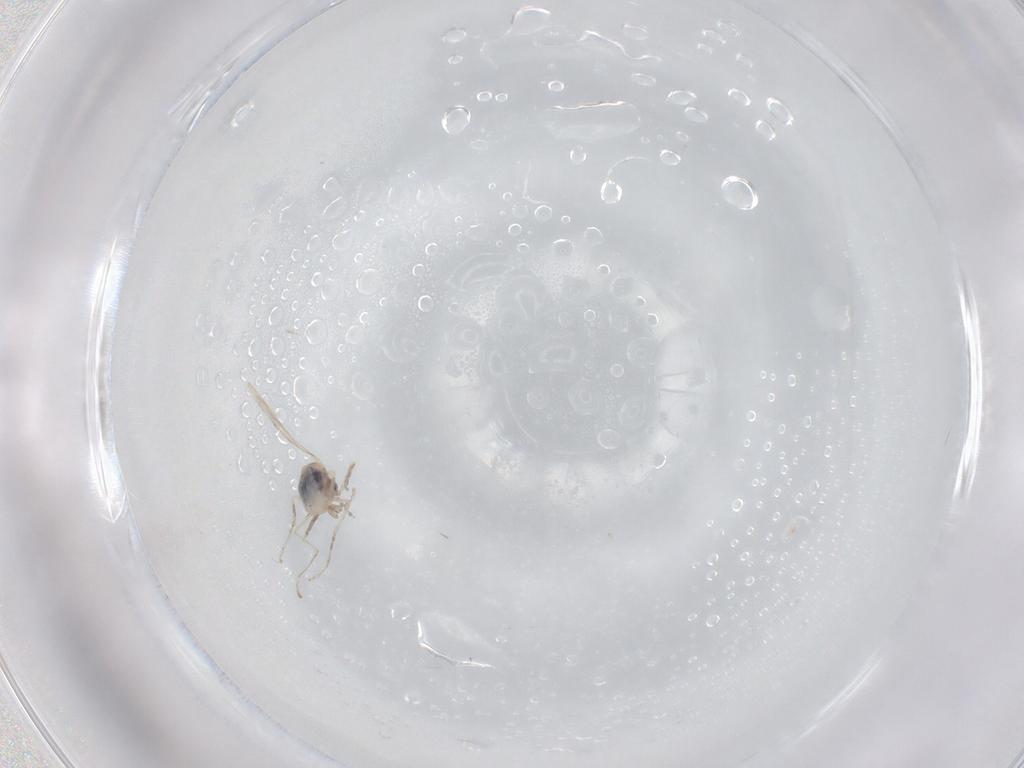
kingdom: Animalia
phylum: Arthropoda
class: Insecta
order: Diptera
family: Cecidomyiidae
